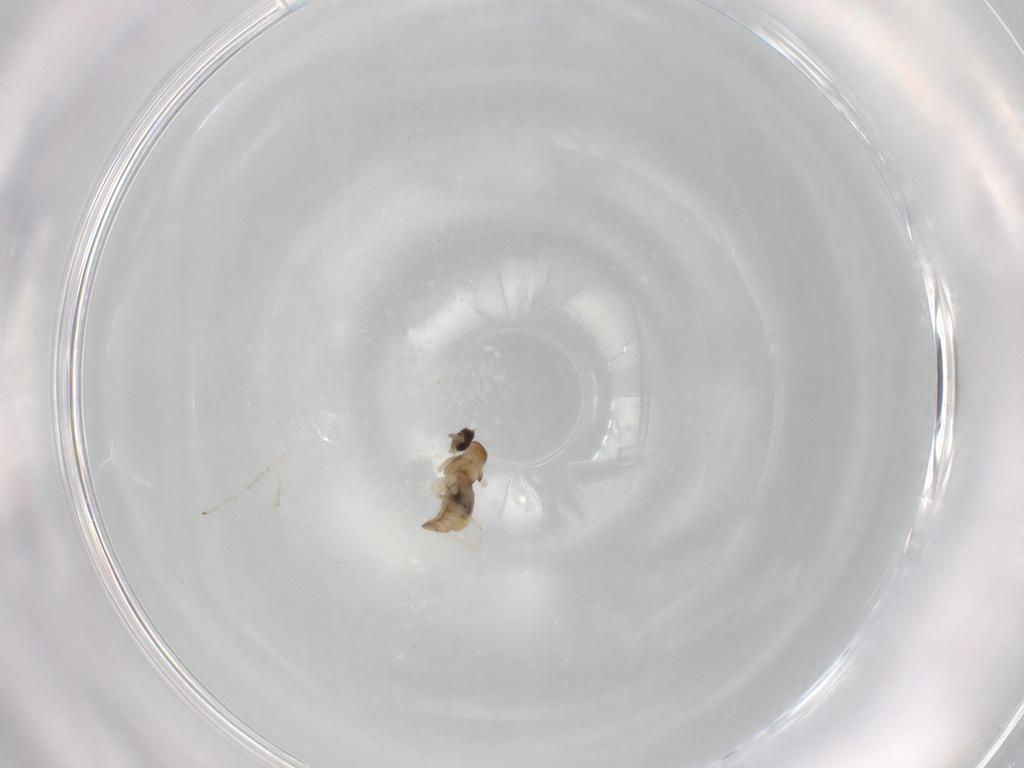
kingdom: Animalia
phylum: Arthropoda
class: Insecta
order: Diptera
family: Cecidomyiidae
